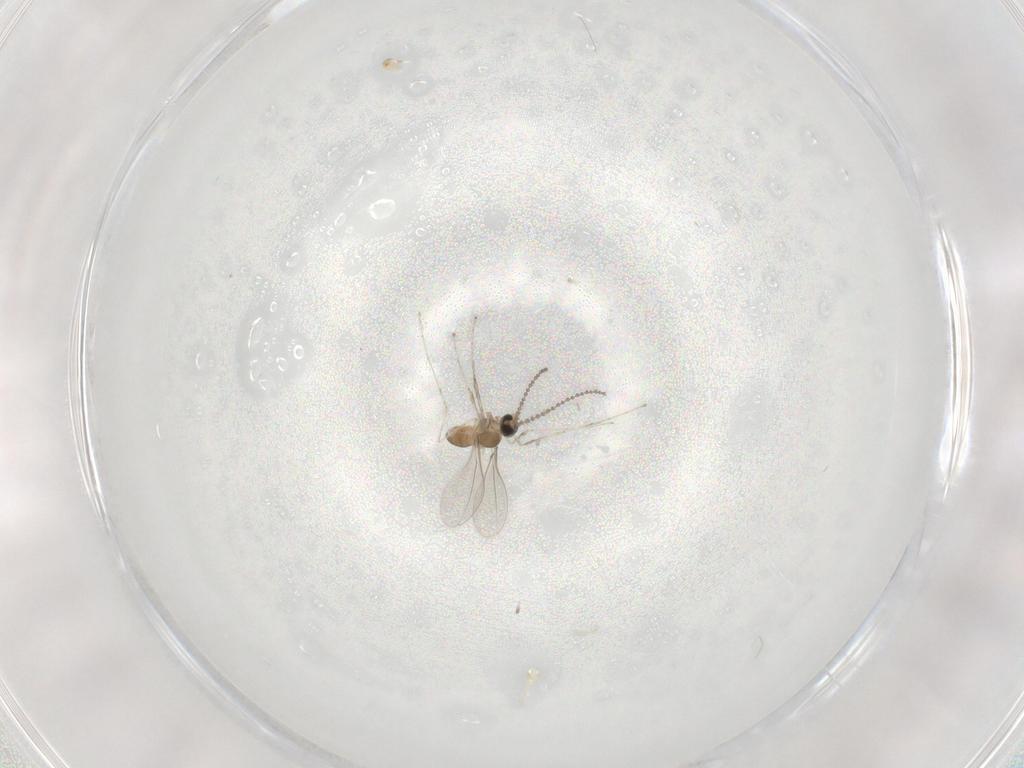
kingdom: Animalia
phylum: Arthropoda
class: Insecta
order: Diptera
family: Cecidomyiidae
